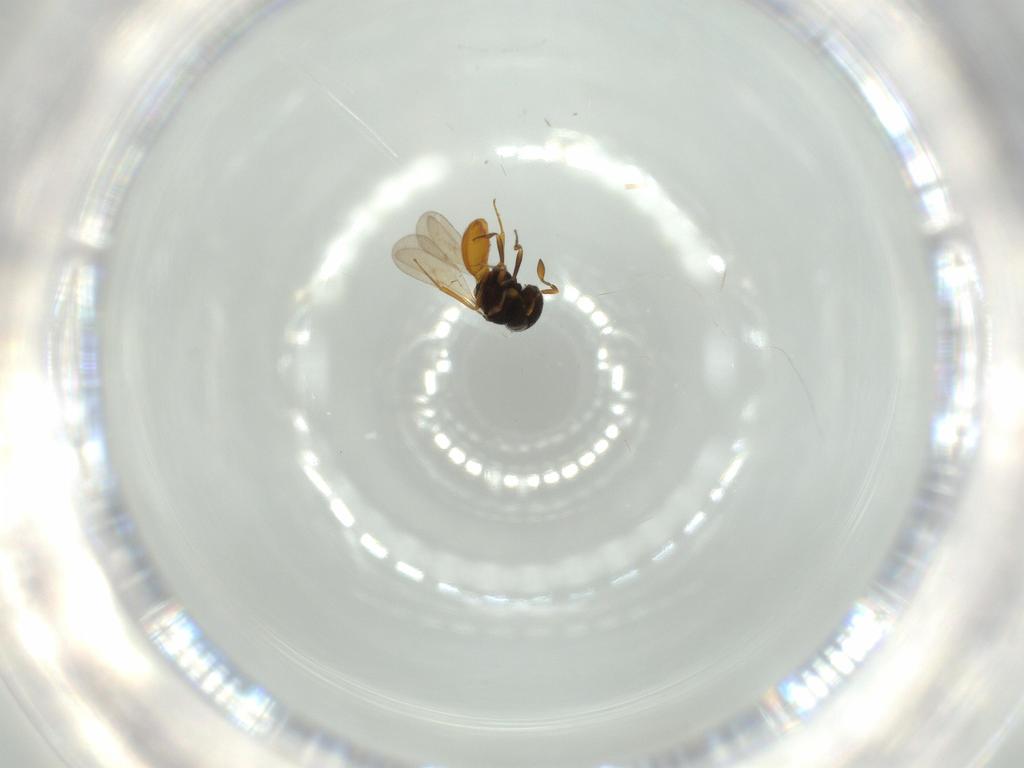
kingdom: Animalia
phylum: Arthropoda
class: Insecta
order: Hymenoptera
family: Scelionidae
